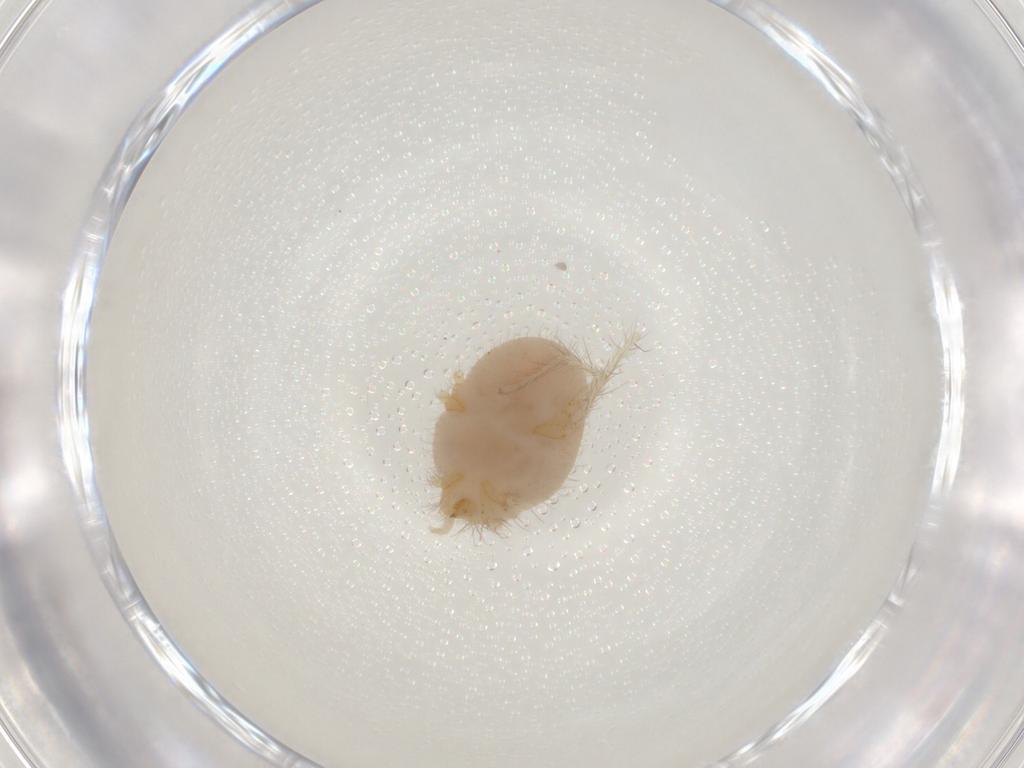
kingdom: Animalia
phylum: Arthropoda
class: Arachnida
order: Trombidiformes
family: Erythraeidae
